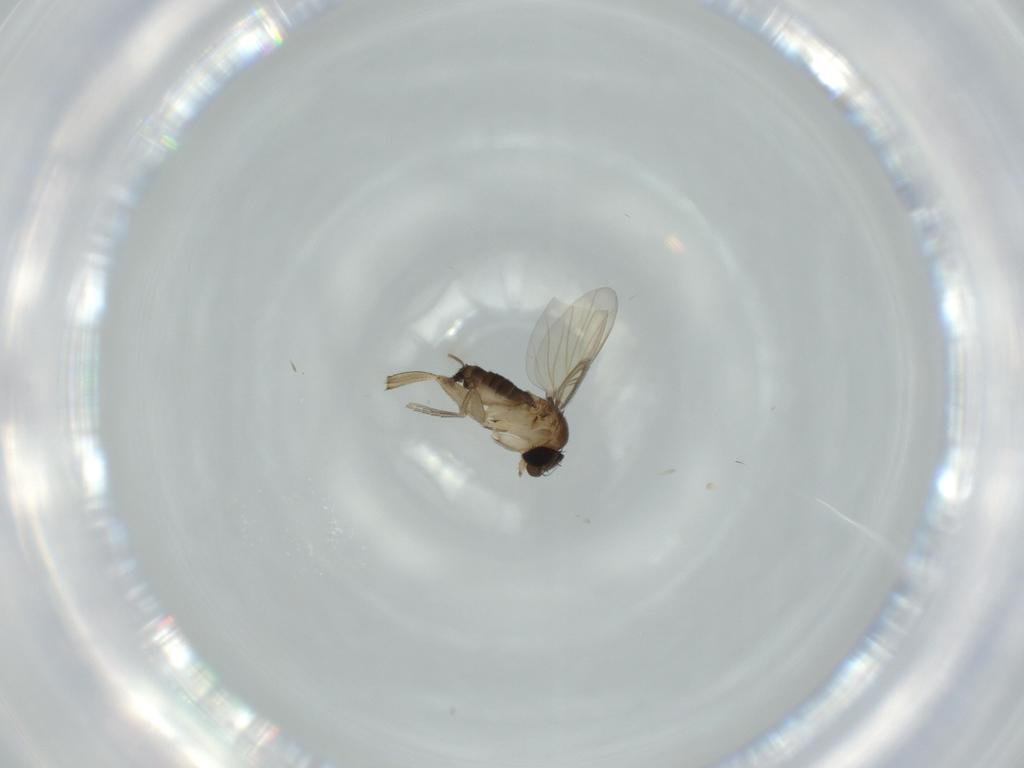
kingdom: Animalia
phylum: Arthropoda
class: Insecta
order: Diptera
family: Phoridae
